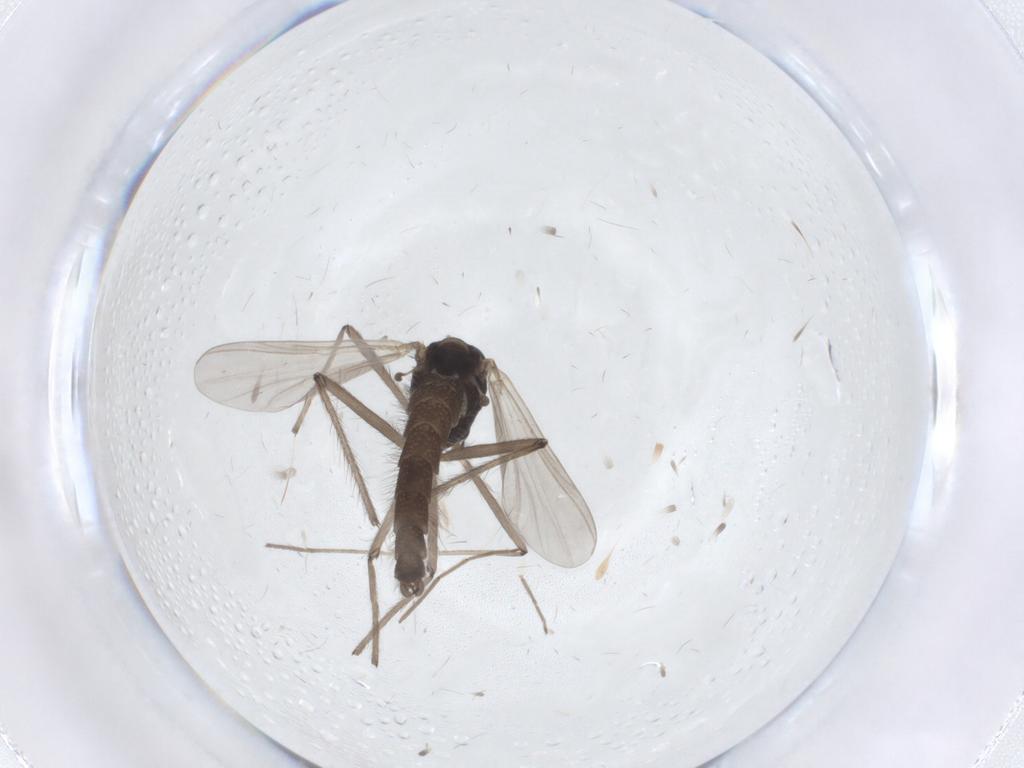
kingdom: Animalia
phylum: Arthropoda
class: Insecta
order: Diptera
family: Chironomidae
